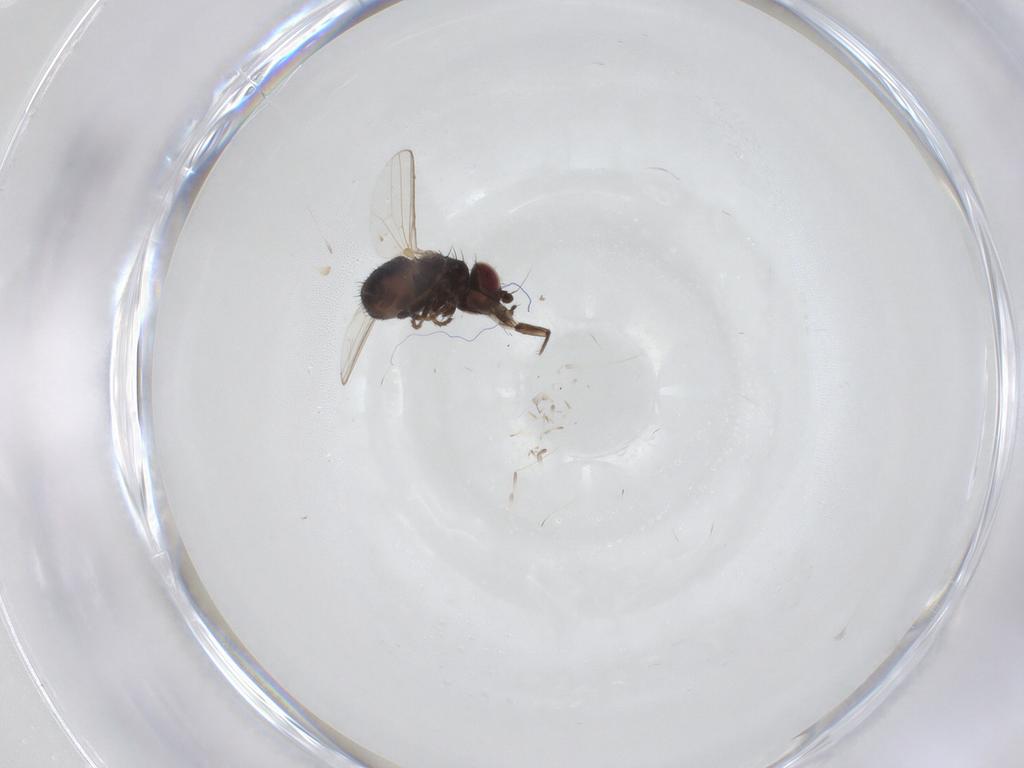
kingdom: Animalia
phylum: Arthropoda
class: Insecta
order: Diptera
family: Milichiidae
